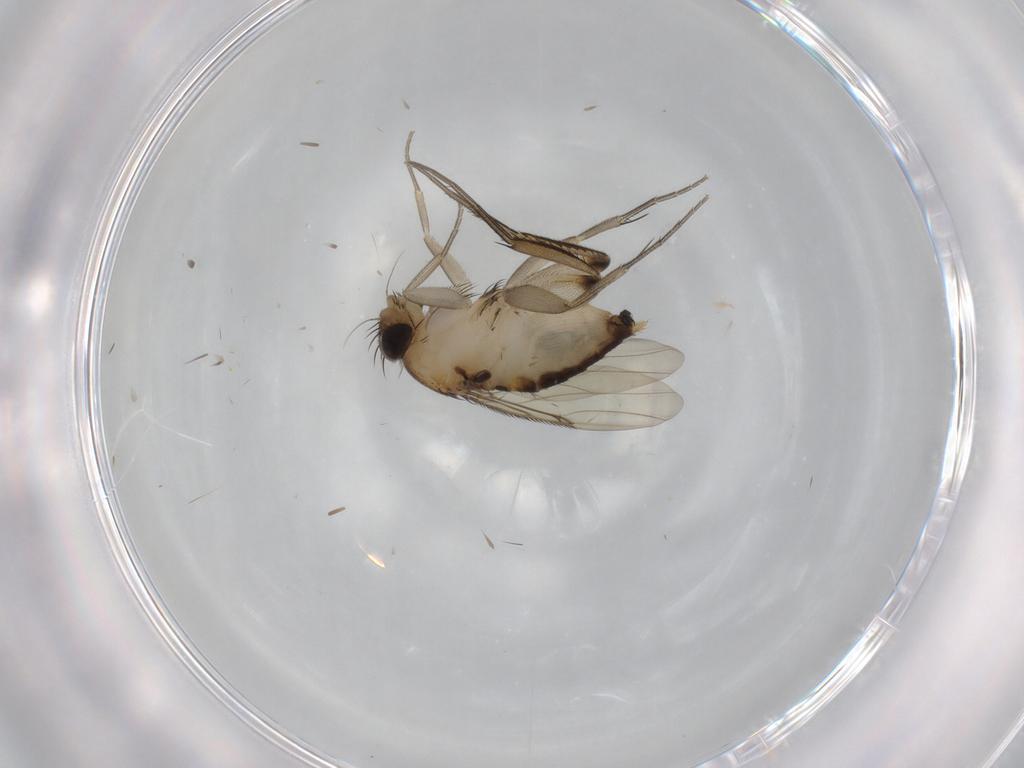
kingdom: Animalia
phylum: Arthropoda
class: Insecta
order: Diptera
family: Phoridae
